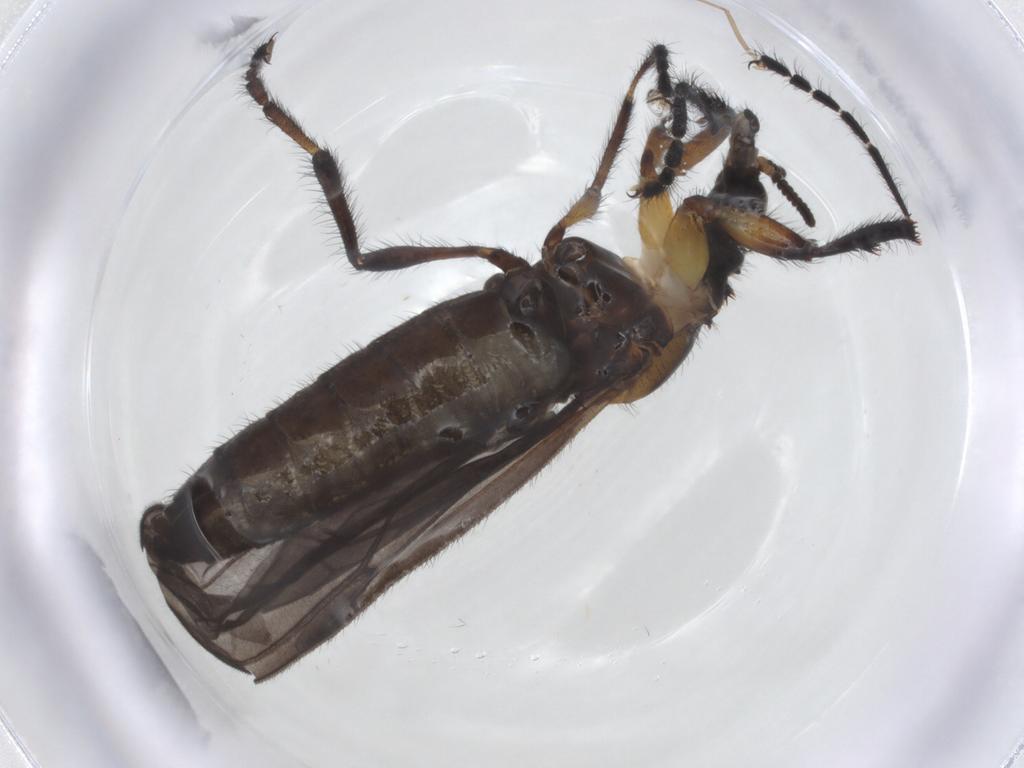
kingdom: Animalia
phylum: Arthropoda
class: Insecta
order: Diptera
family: Bibionidae
